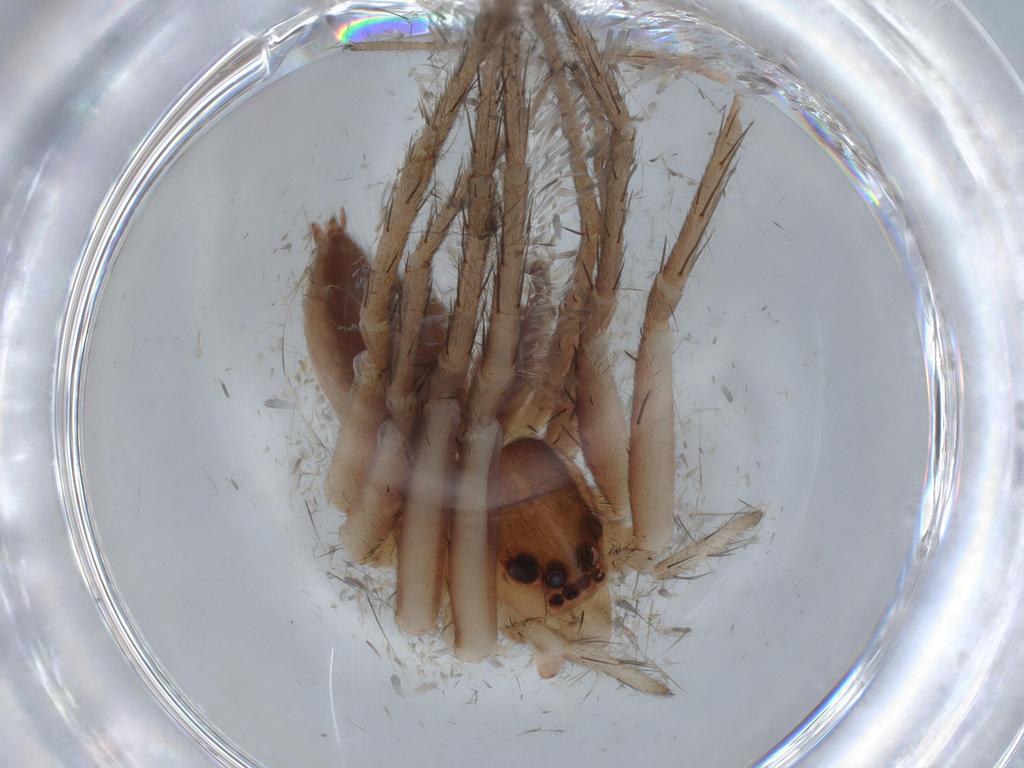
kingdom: Animalia
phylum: Arthropoda
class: Arachnida
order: Araneae
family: Pisauridae
